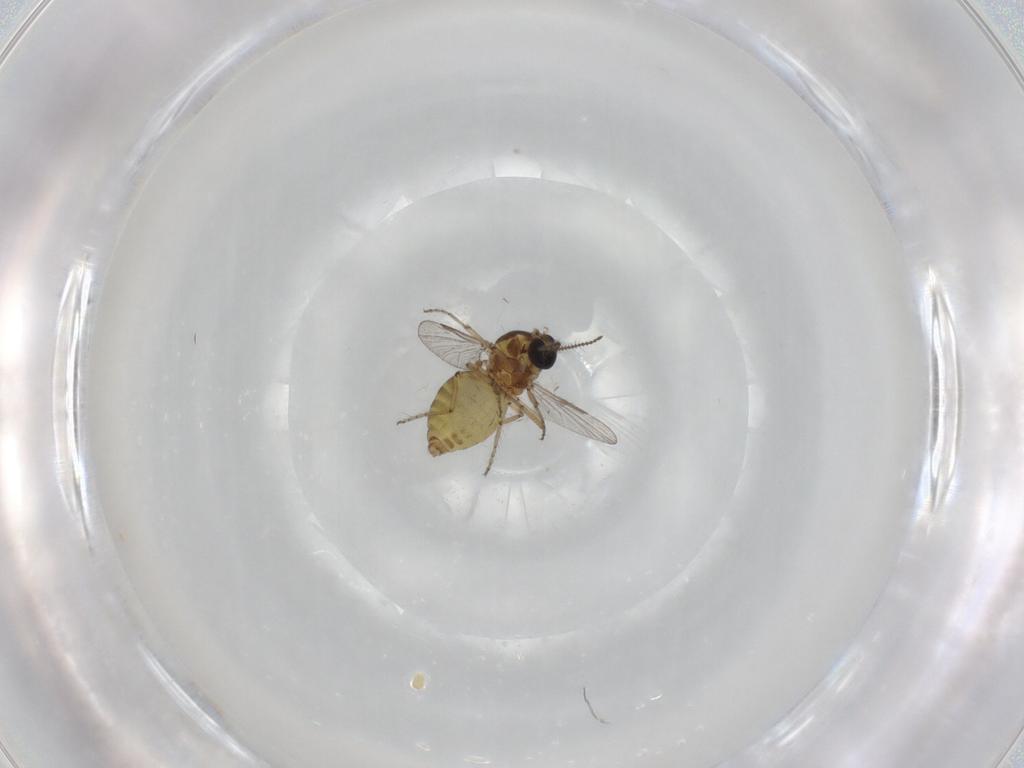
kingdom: Animalia
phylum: Arthropoda
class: Insecta
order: Diptera
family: Ceratopogonidae
